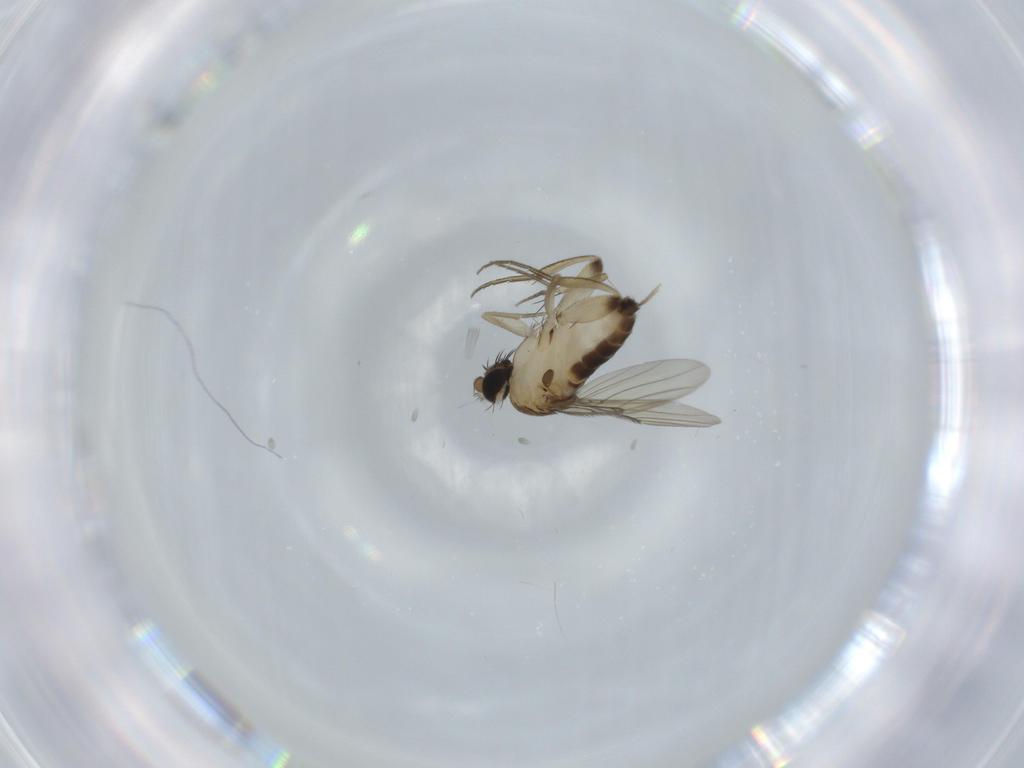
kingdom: Animalia
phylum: Arthropoda
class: Insecta
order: Diptera
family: Phoridae
